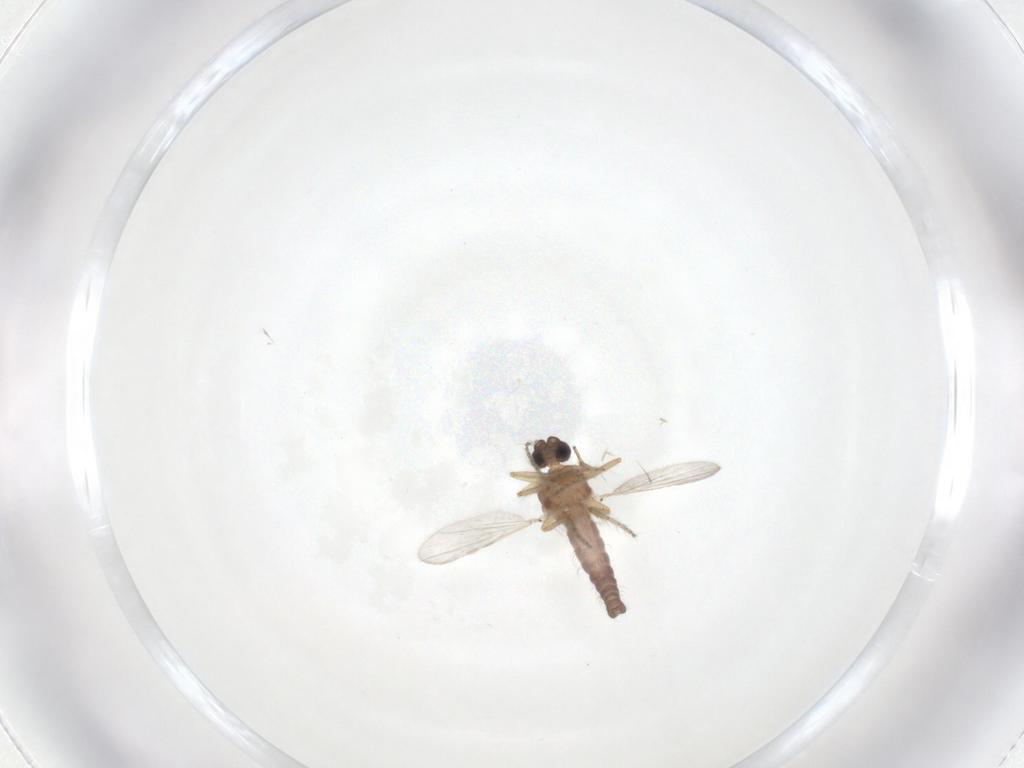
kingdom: Animalia
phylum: Arthropoda
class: Insecta
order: Diptera
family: Ceratopogonidae
